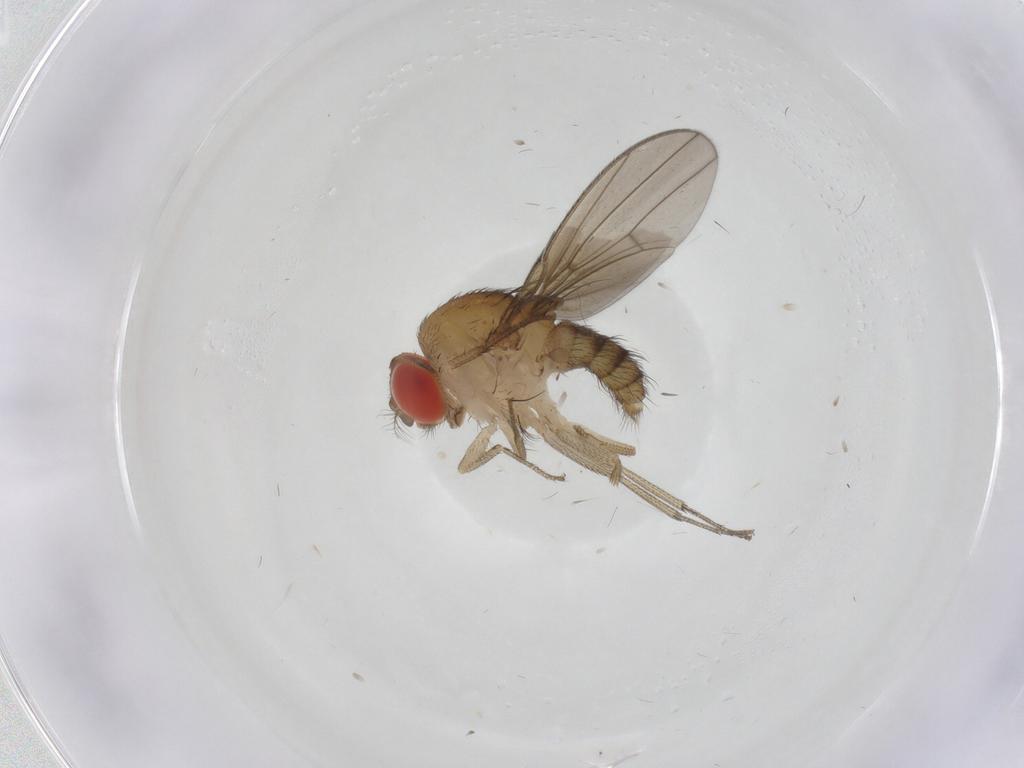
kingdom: Animalia
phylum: Arthropoda
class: Insecta
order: Diptera
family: Drosophilidae
